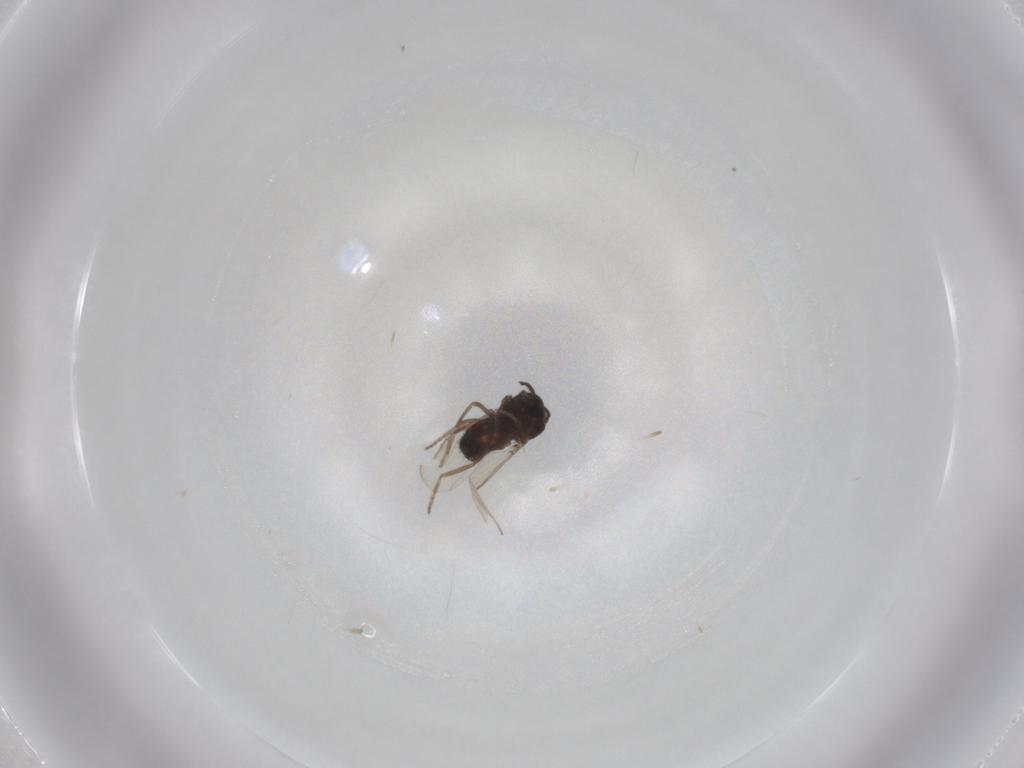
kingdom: Animalia
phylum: Arthropoda
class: Insecta
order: Diptera
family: Ceratopogonidae
